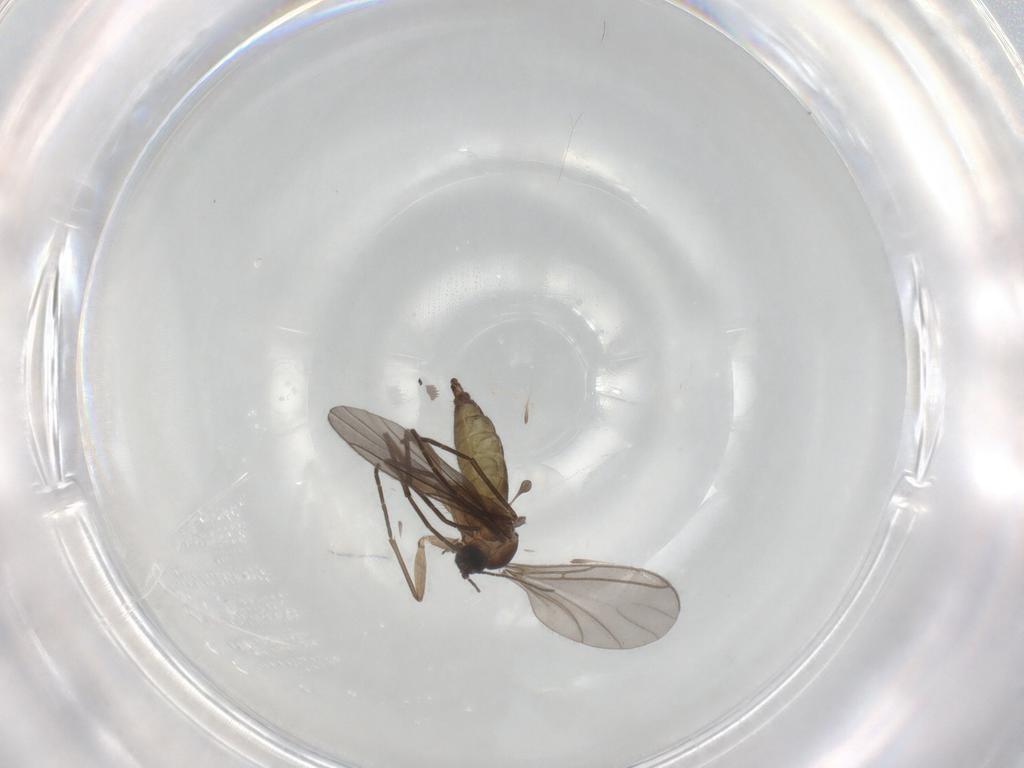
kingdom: Animalia
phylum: Arthropoda
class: Insecta
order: Diptera
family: Sciaridae
